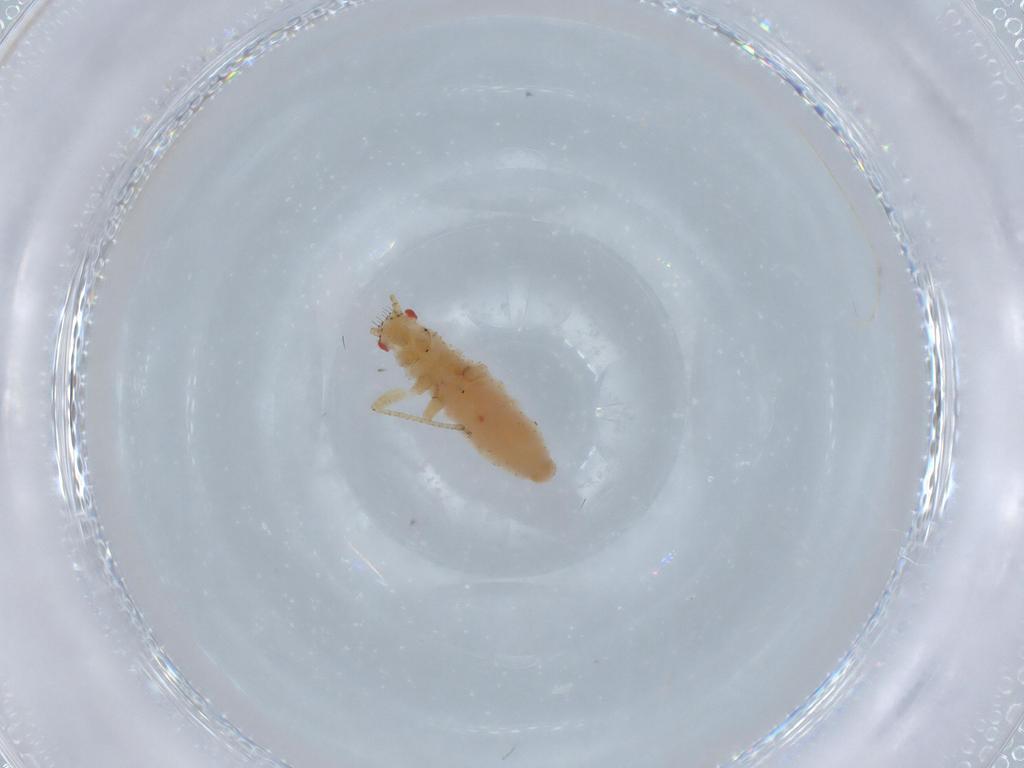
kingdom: Animalia
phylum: Arthropoda
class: Insecta
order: Hemiptera
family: Aphididae
